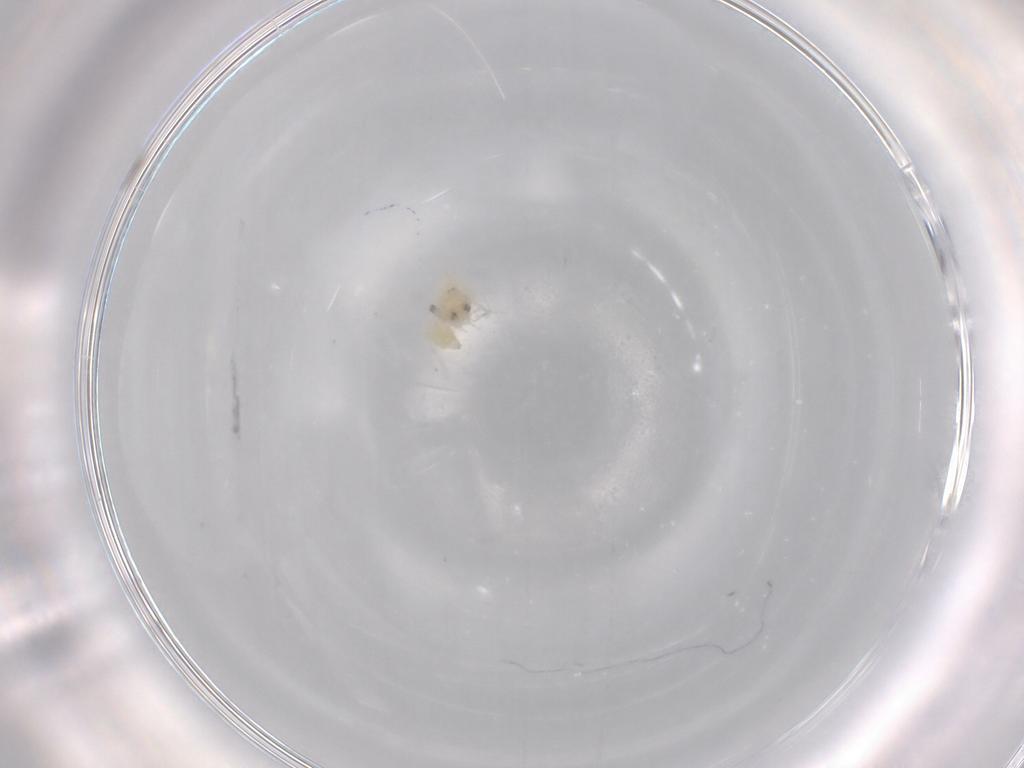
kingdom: Animalia
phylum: Arthropoda
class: Insecta
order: Hemiptera
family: Aleyrodidae
